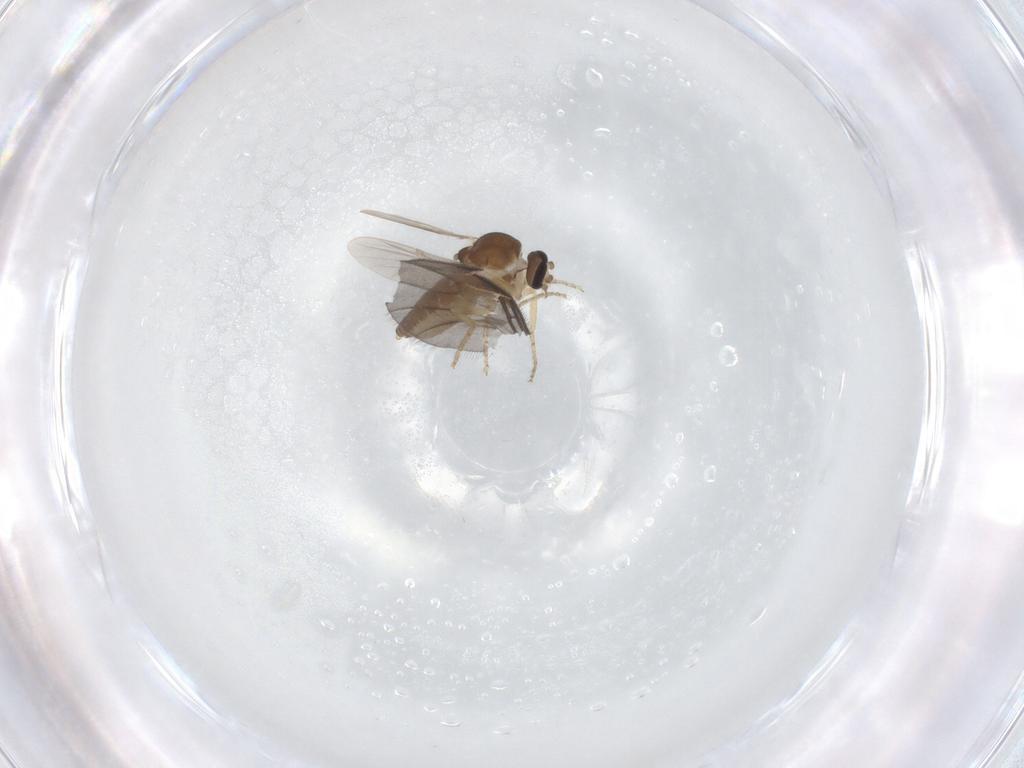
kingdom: Animalia
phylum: Arthropoda
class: Insecta
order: Diptera
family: Ceratopogonidae
